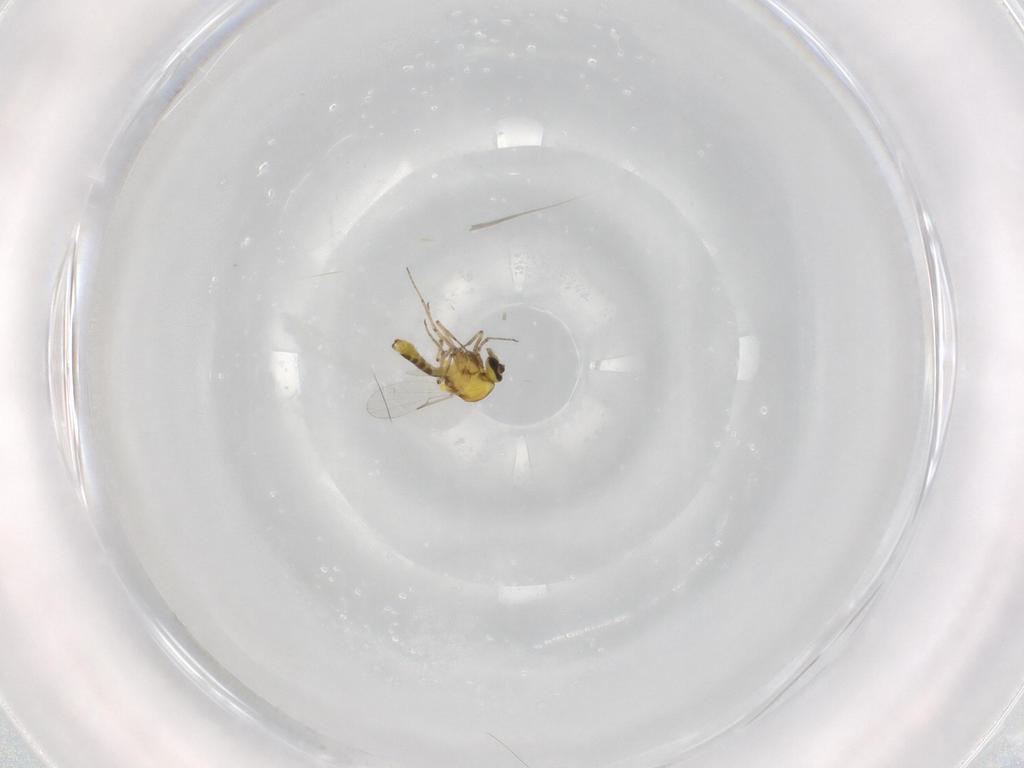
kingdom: Animalia
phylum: Arthropoda
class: Insecta
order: Diptera
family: Ceratopogonidae
